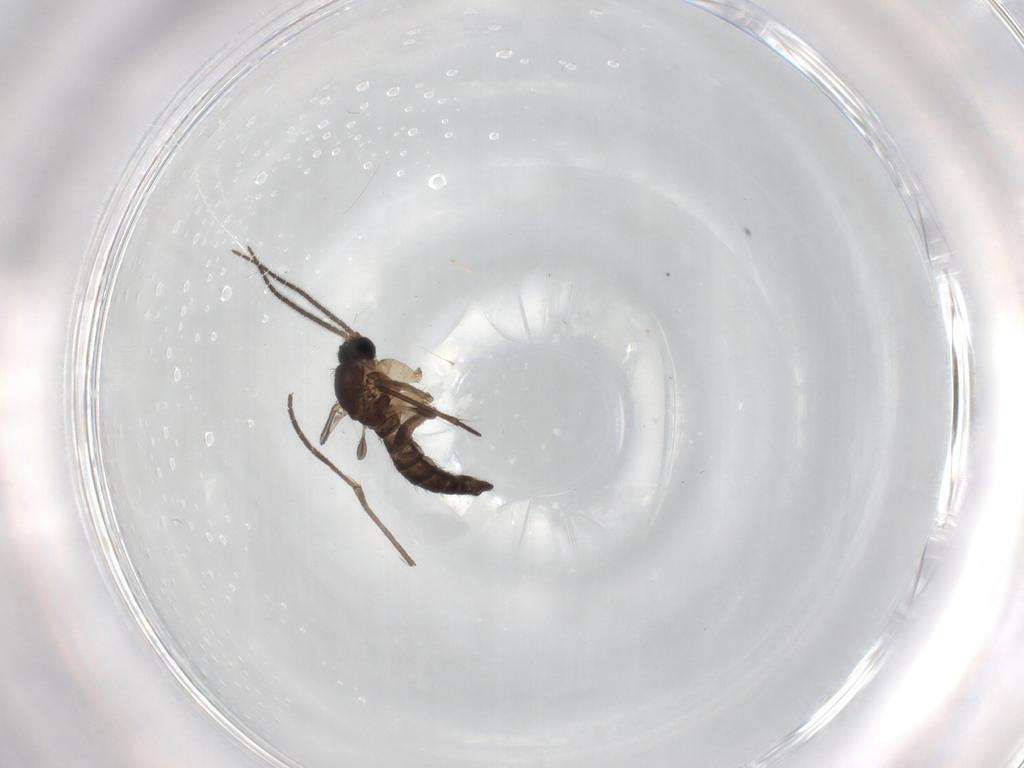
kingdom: Animalia
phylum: Arthropoda
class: Insecta
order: Diptera
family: Sciaridae
